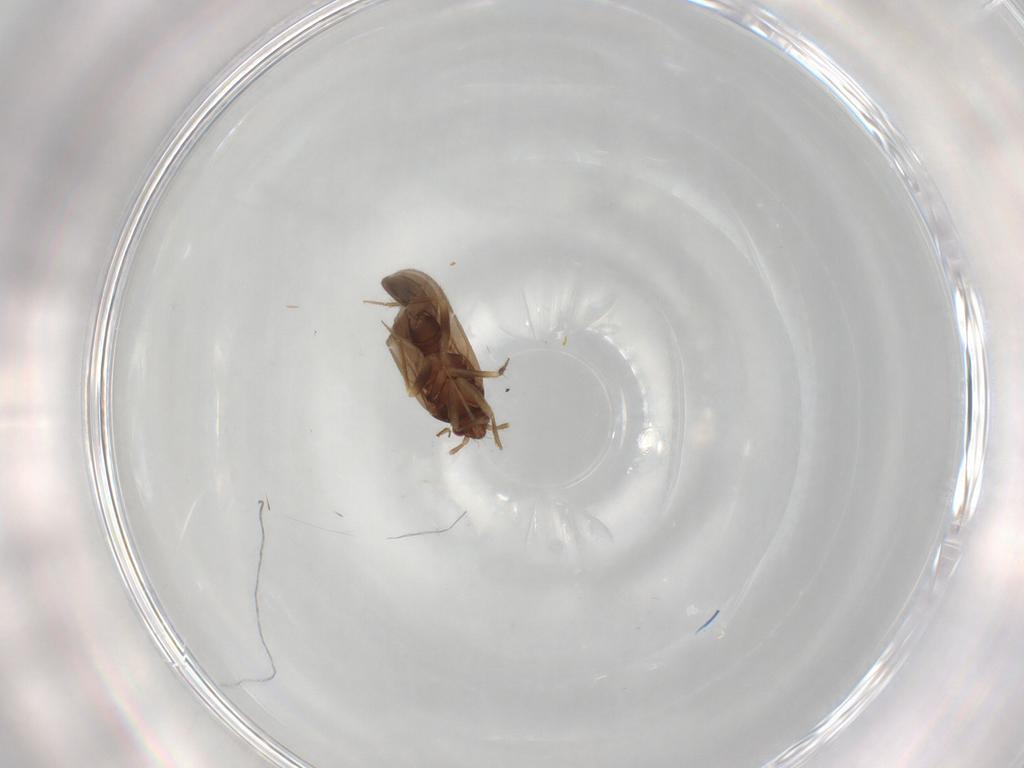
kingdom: Animalia
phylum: Arthropoda
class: Insecta
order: Hemiptera
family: Ceratocombidae
